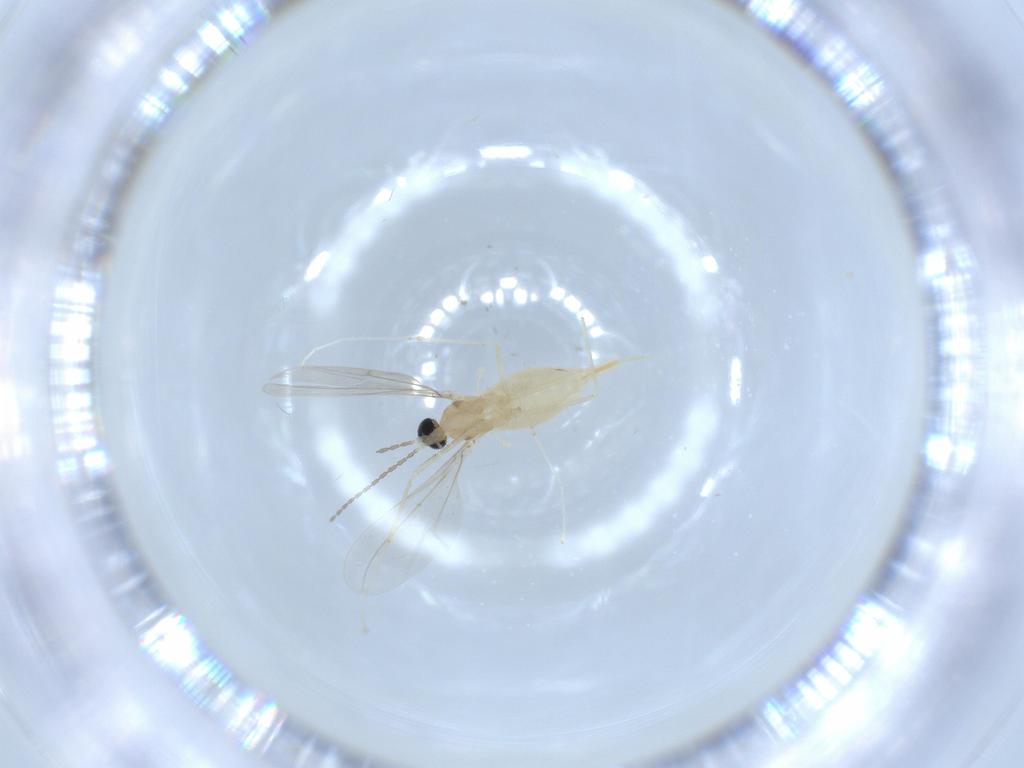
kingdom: Animalia
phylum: Arthropoda
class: Insecta
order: Diptera
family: Cecidomyiidae
